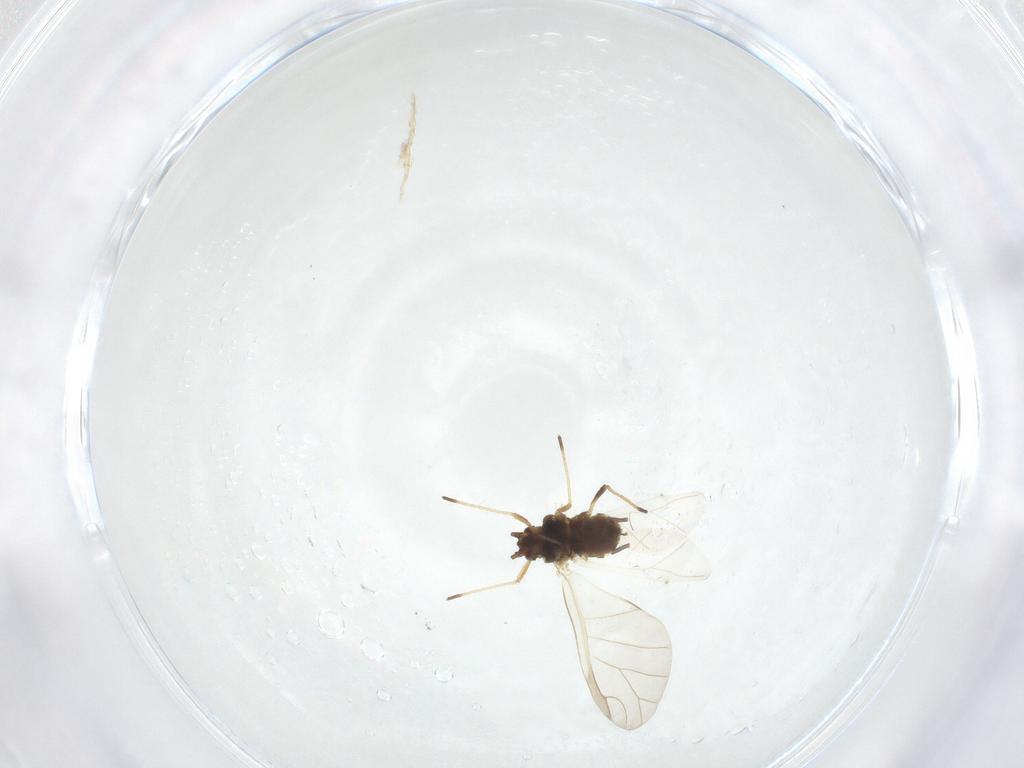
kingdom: Animalia
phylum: Arthropoda
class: Insecta
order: Hemiptera
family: Aphididae
